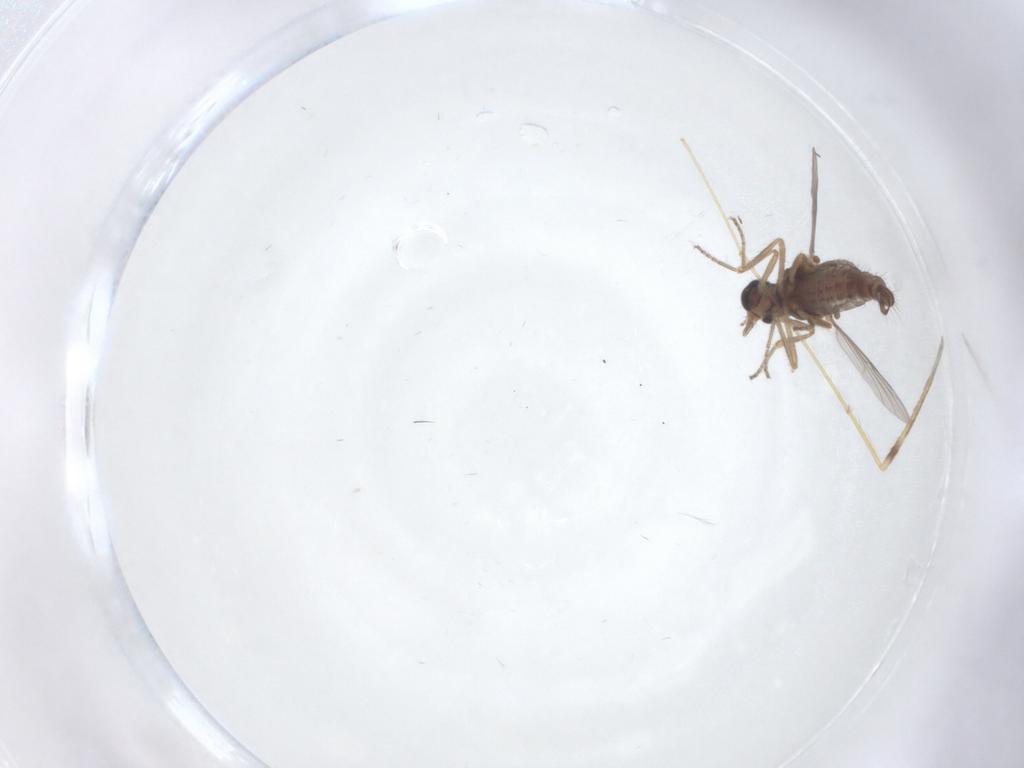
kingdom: Animalia
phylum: Arthropoda
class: Insecta
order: Diptera
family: Ceratopogonidae
